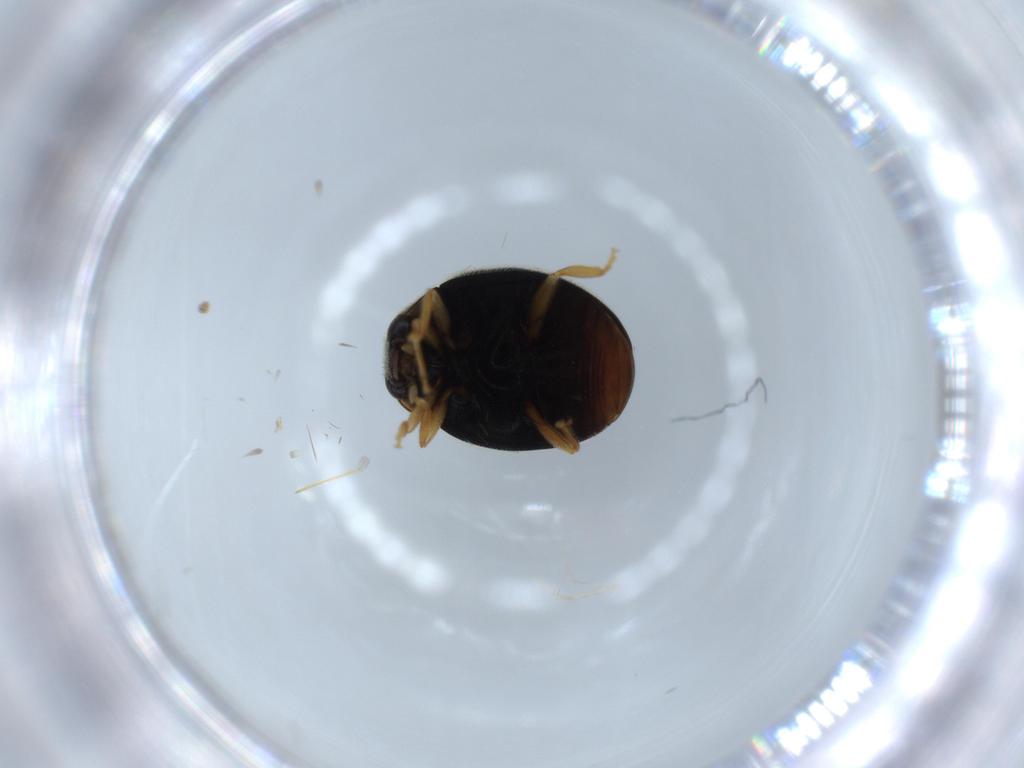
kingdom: Animalia
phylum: Arthropoda
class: Insecta
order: Coleoptera
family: Coccinellidae
